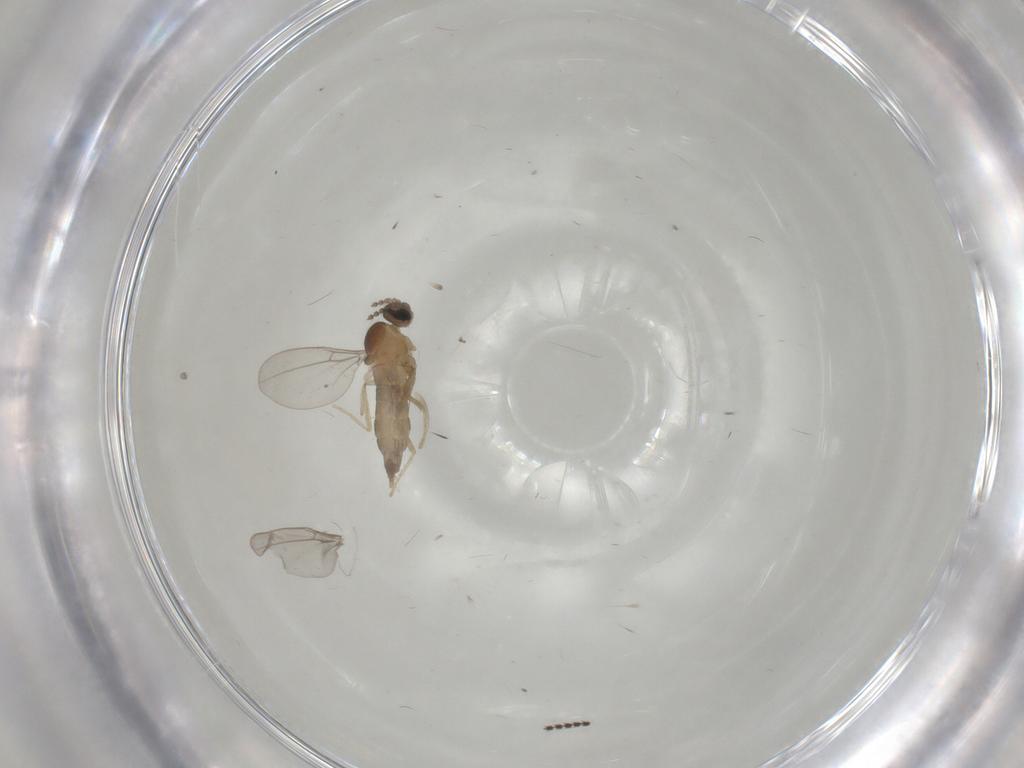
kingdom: Animalia
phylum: Arthropoda
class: Insecta
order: Diptera
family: Cecidomyiidae
